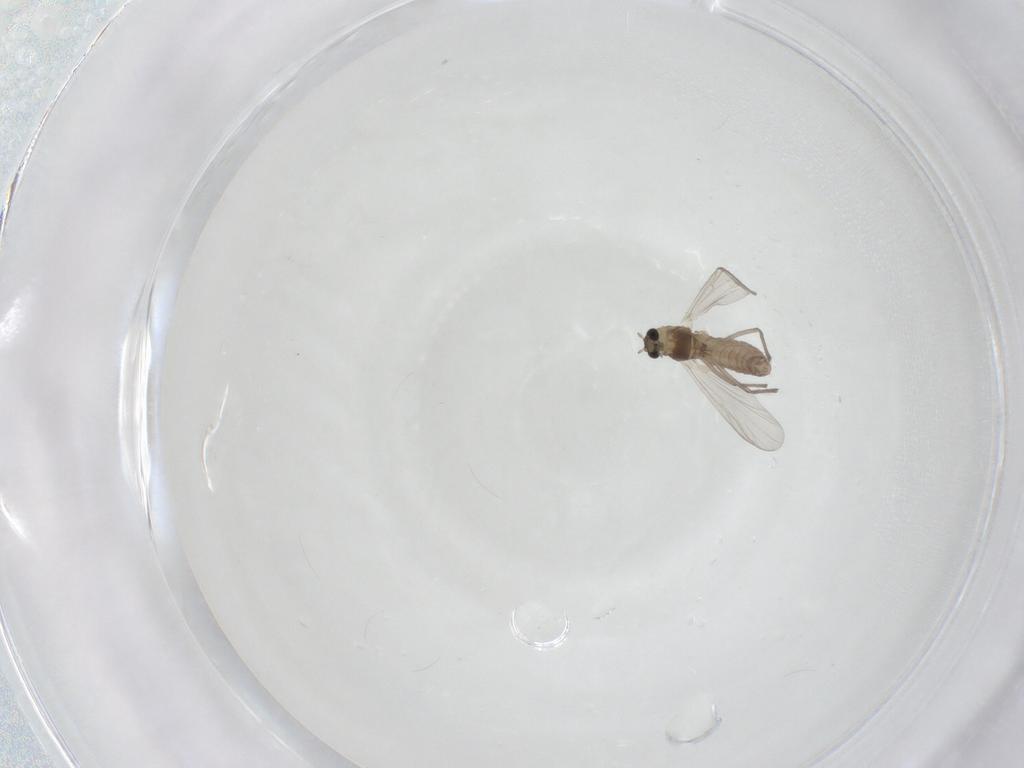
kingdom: Animalia
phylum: Arthropoda
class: Insecta
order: Diptera
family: Chironomidae
